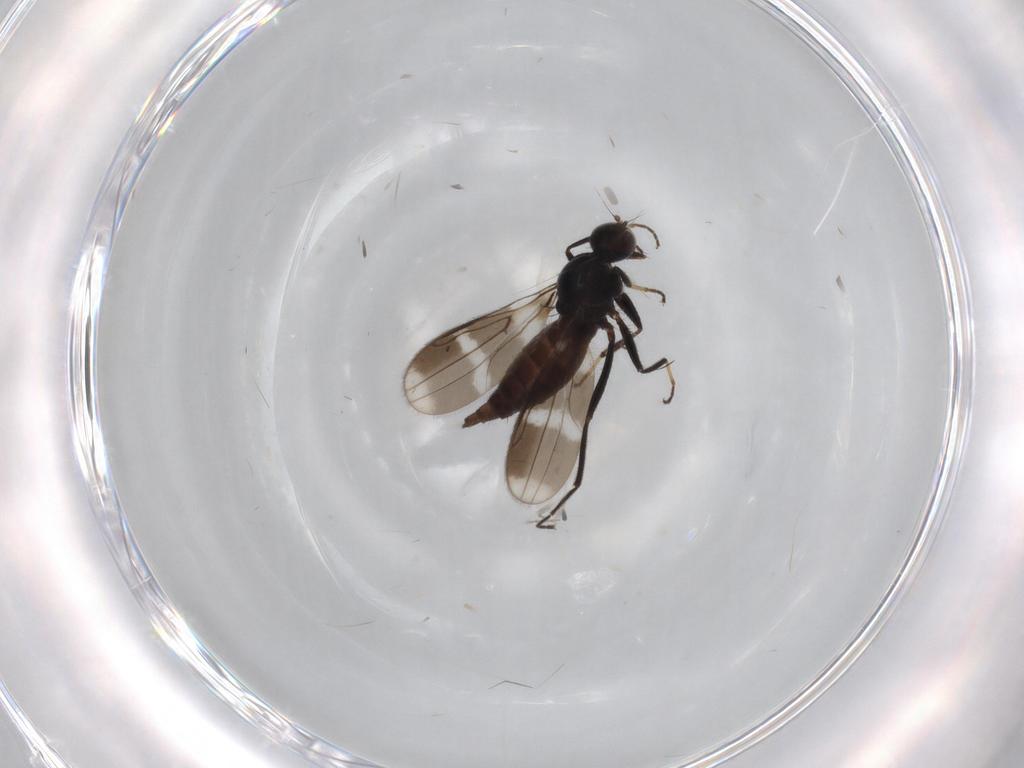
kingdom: Animalia
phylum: Arthropoda
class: Insecta
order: Diptera
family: Hybotidae
